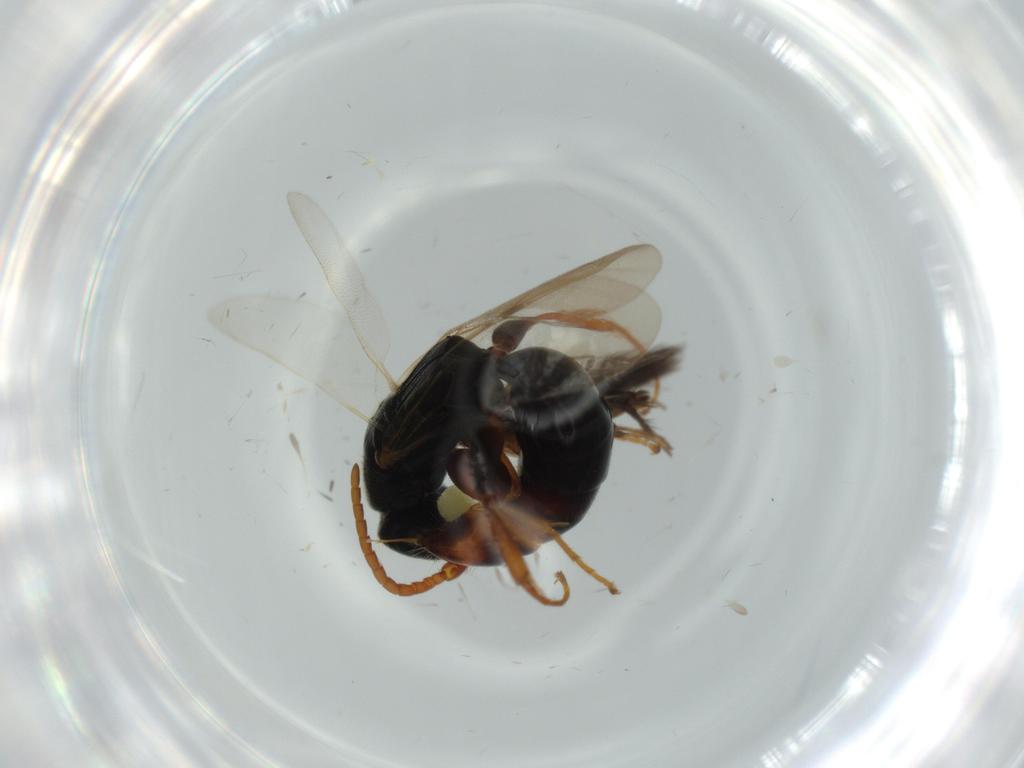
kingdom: Animalia
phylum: Arthropoda
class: Insecta
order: Hymenoptera
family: Bethylidae
